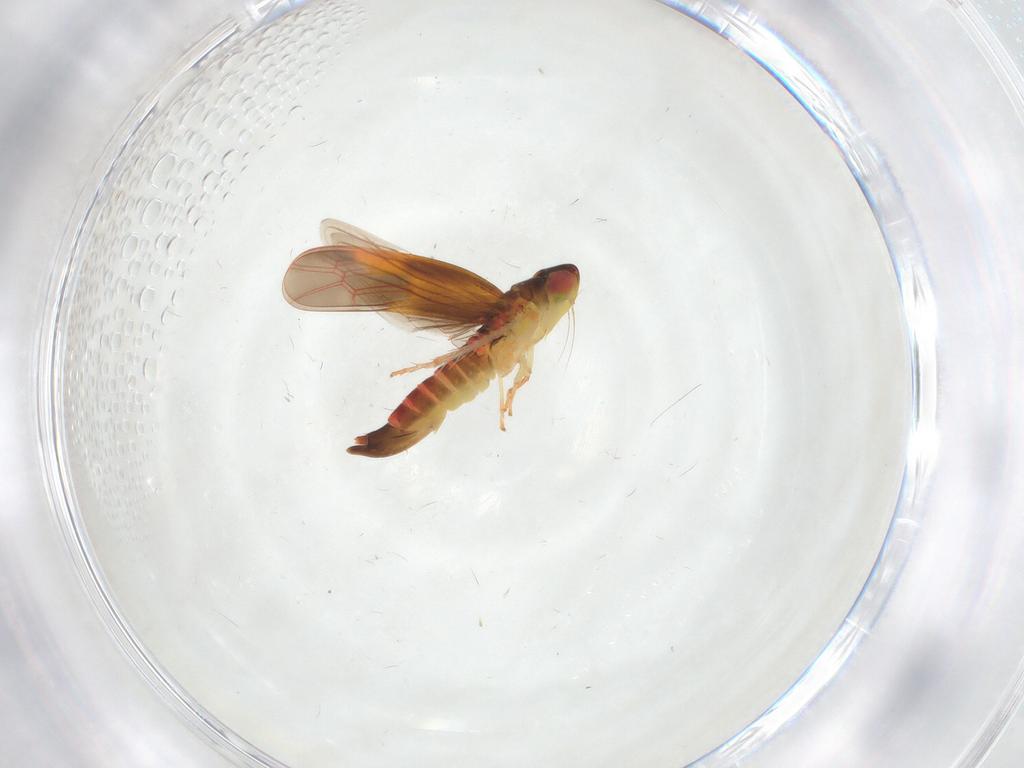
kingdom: Animalia
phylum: Arthropoda
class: Insecta
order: Hemiptera
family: Cicadellidae
